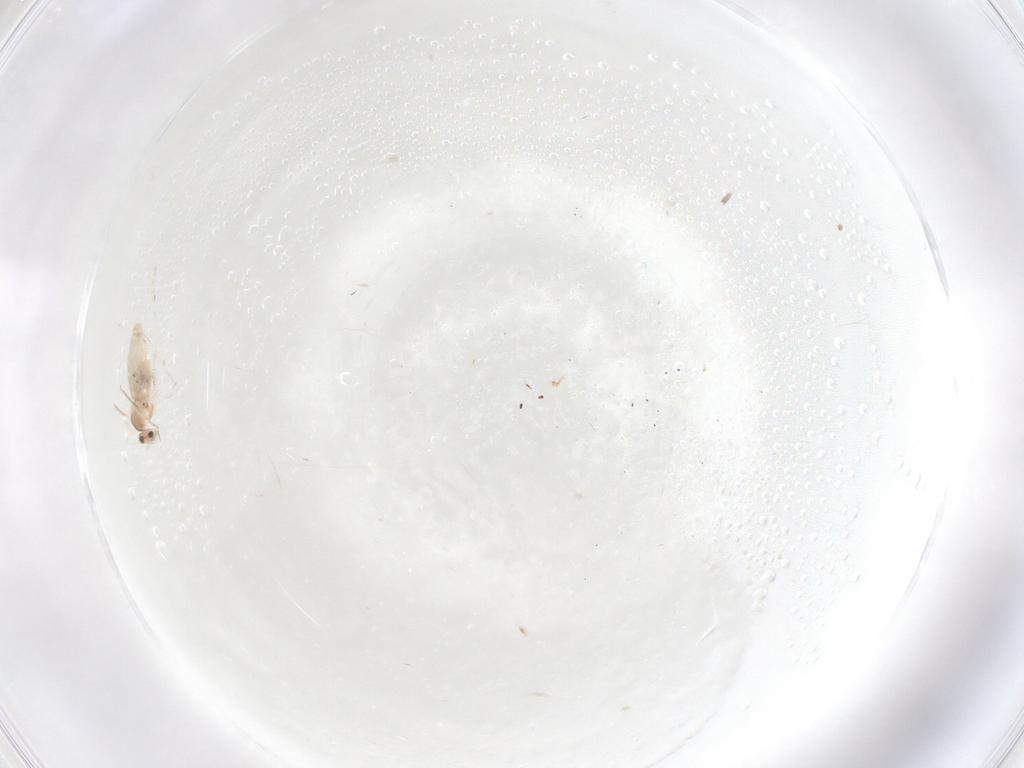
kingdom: Animalia
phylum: Arthropoda
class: Insecta
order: Diptera
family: Cecidomyiidae
